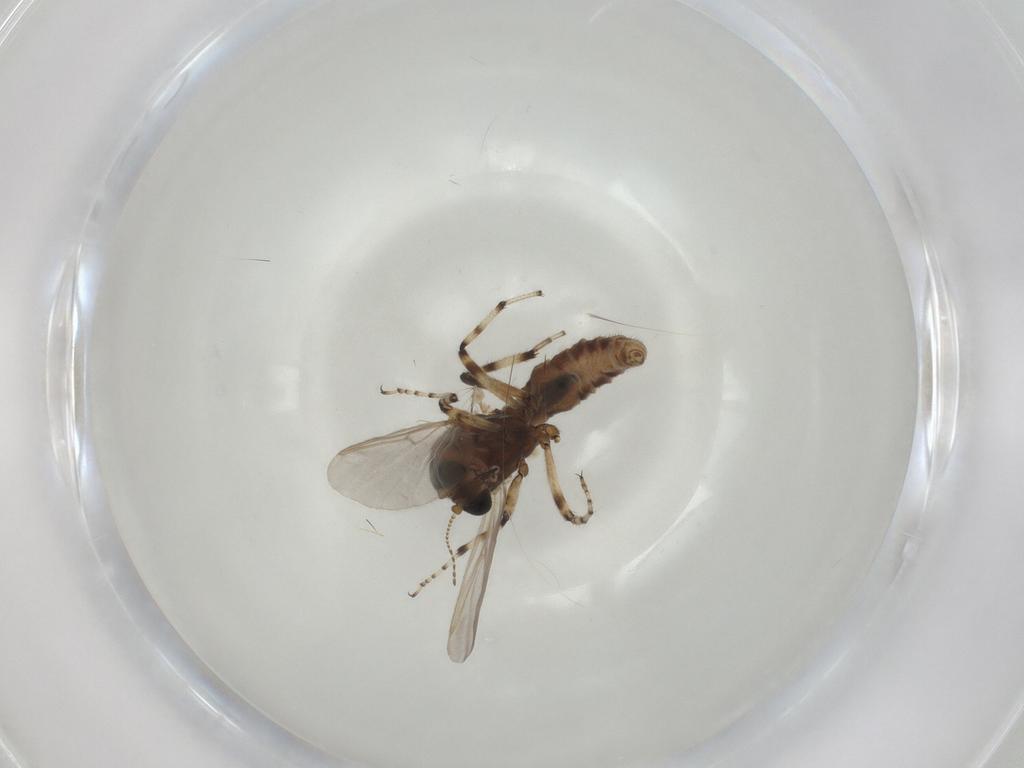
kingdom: Animalia
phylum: Arthropoda
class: Insecta
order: Diptera
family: Ceratopogonidae
